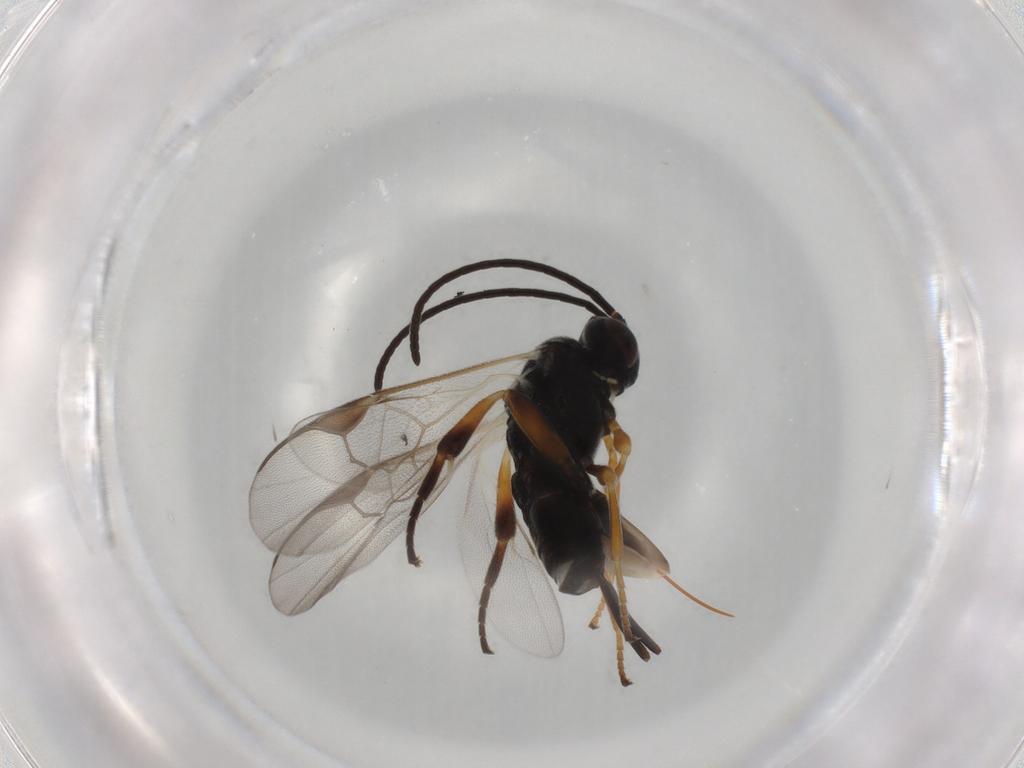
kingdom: Animalia
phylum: Arthropoda
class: Insecta
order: Hymenoptera
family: Braconidae
